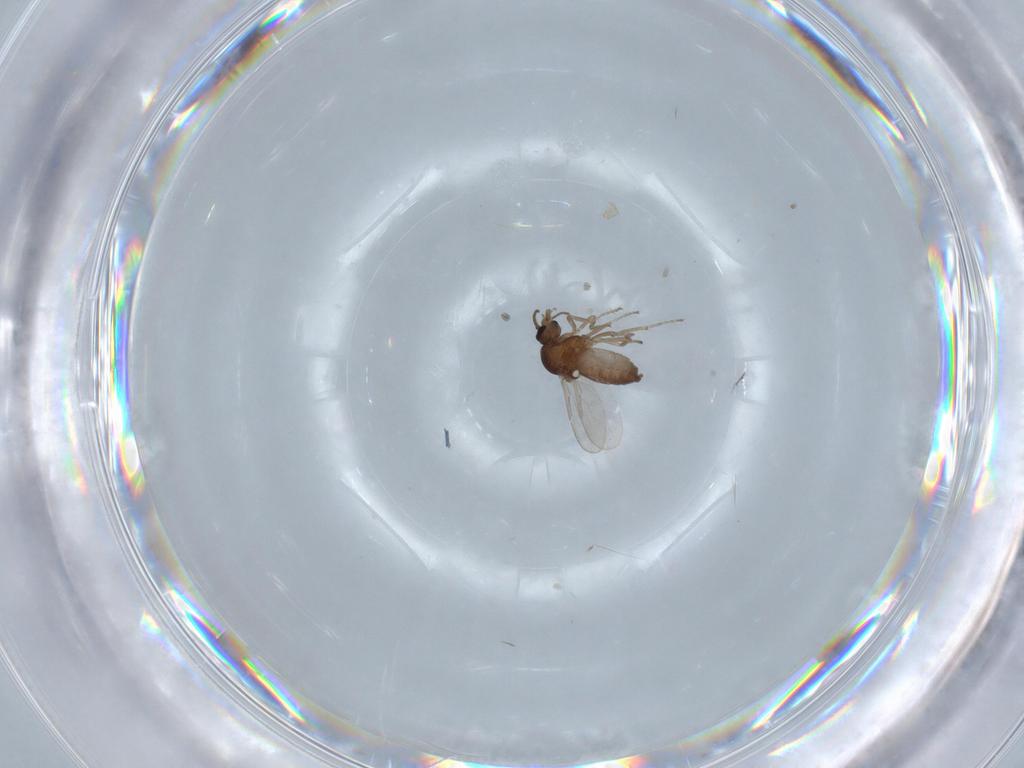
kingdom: Animalia
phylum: Arthropoda
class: Insecta
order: Diptera
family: Ceratopogonidae
